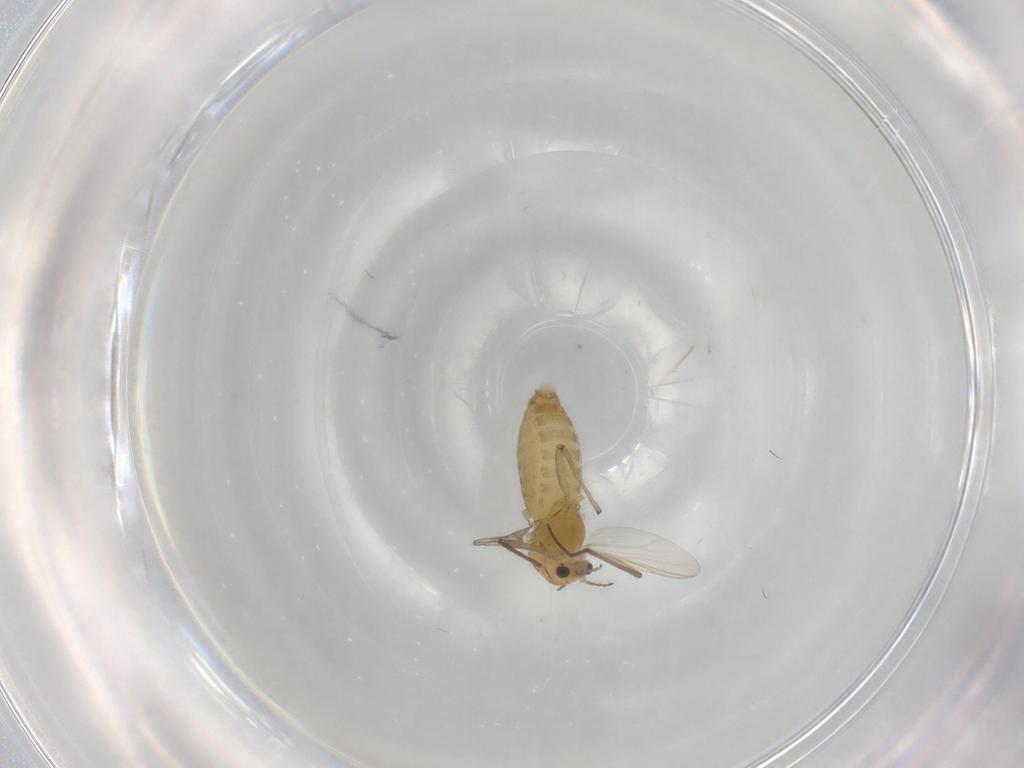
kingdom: Animalia
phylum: Arthropoda
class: Insecta
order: Diptera
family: Chironomidae
